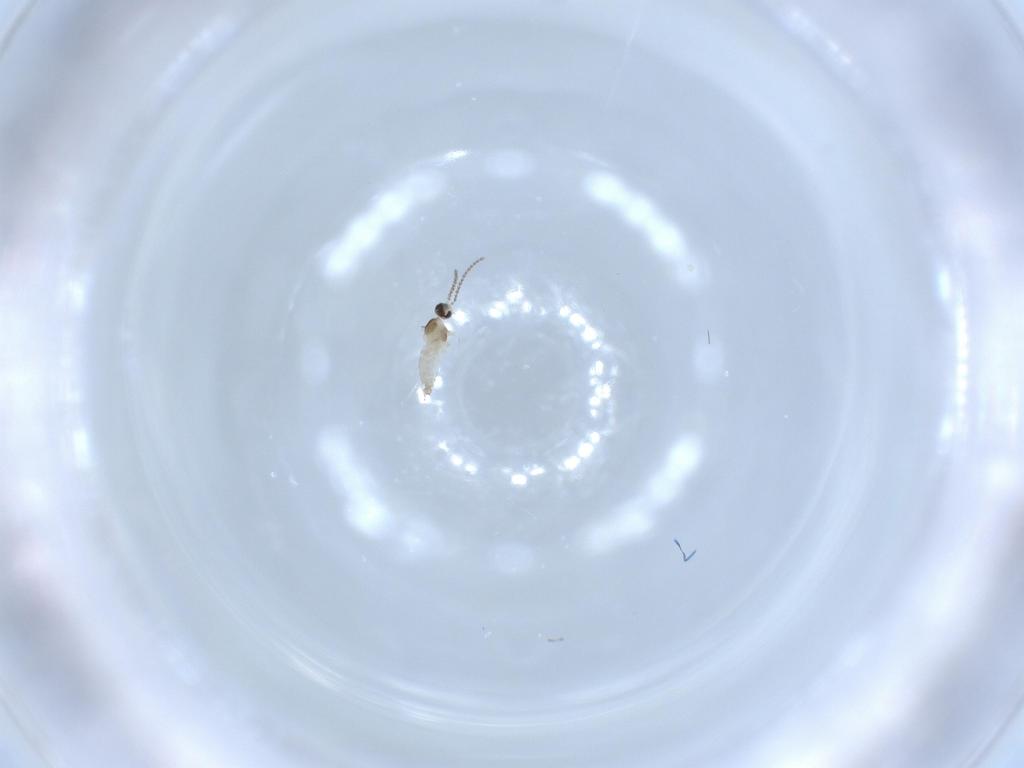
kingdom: Animalia
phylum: Arthropoda
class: Insecta
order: Diptera
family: Cecidomyiidae
